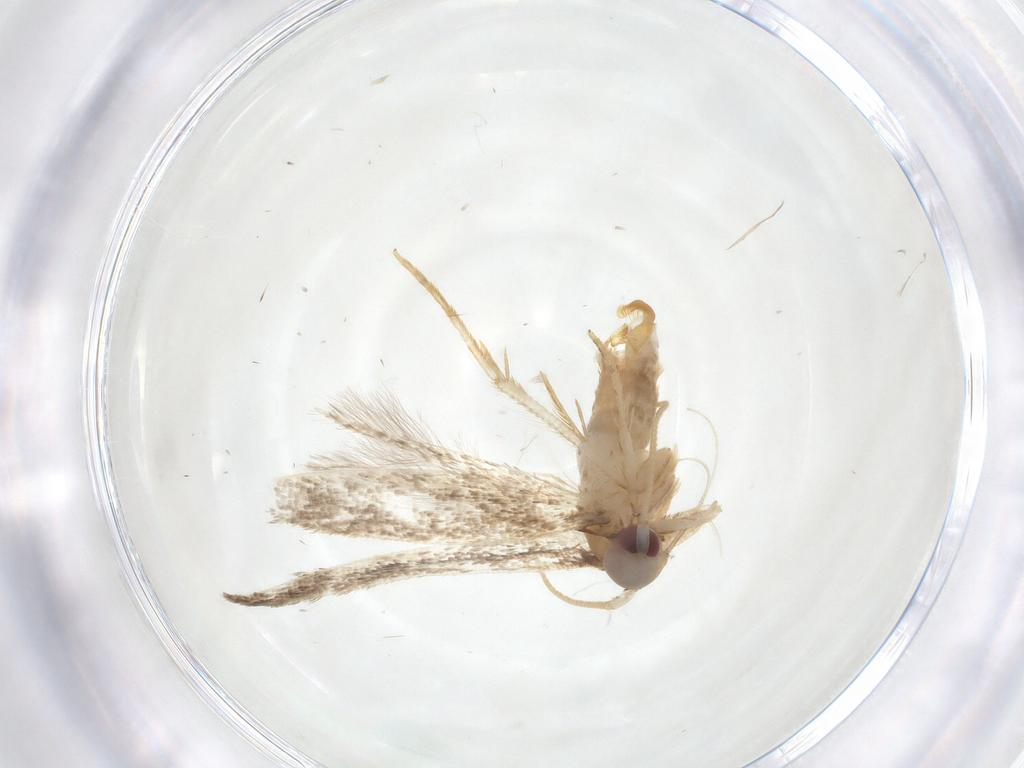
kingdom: Animalia
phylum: Arthropoda
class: Insecta
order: Lepidoptera
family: Cosmopterigidae
